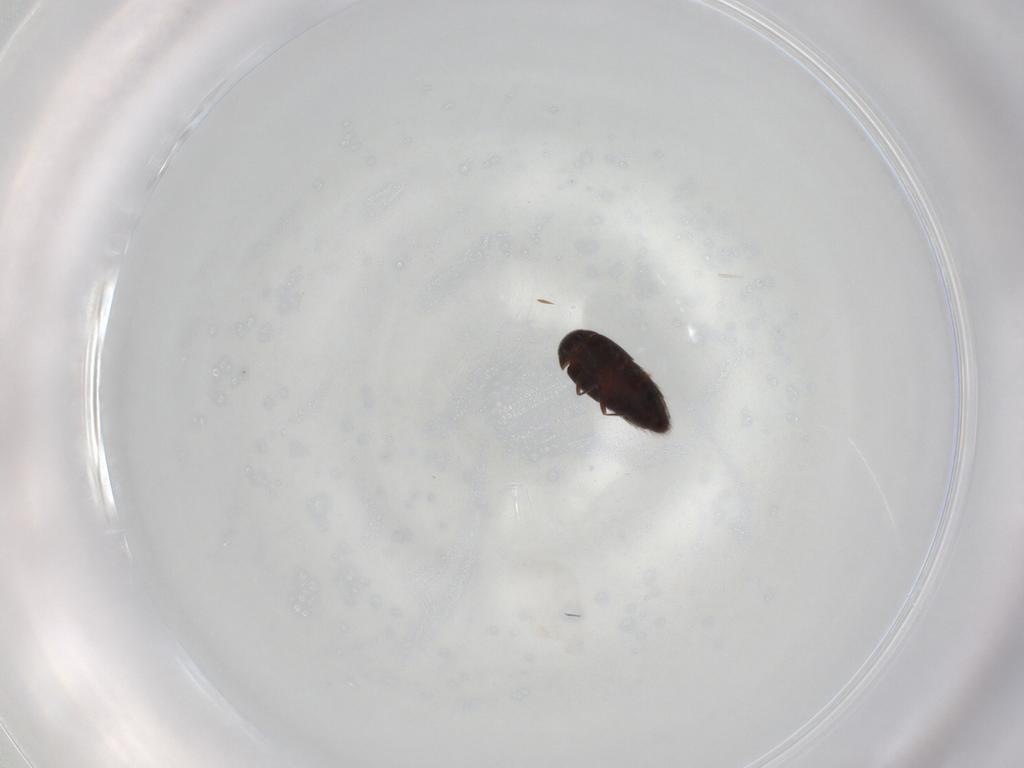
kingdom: Animalia
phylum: Arthropoda
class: Insecta
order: Coleoptera
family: Staphylinidae
